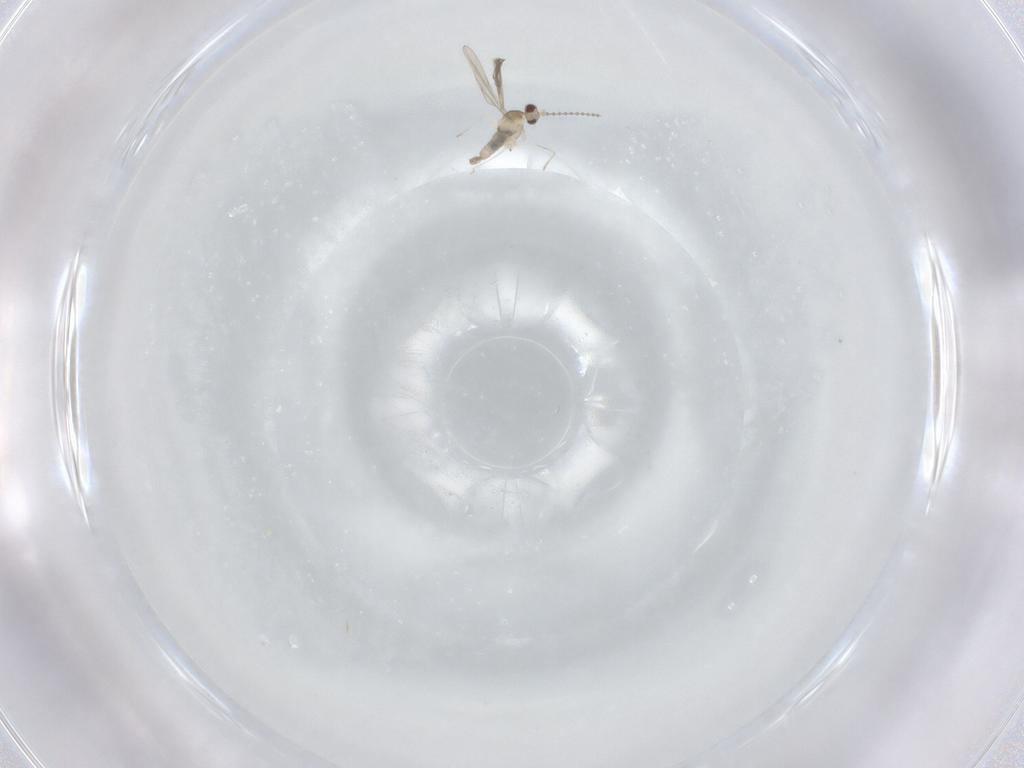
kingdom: Animalia
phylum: Arthropoda
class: Insecta
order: Diptera
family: Cecidomyiidae
